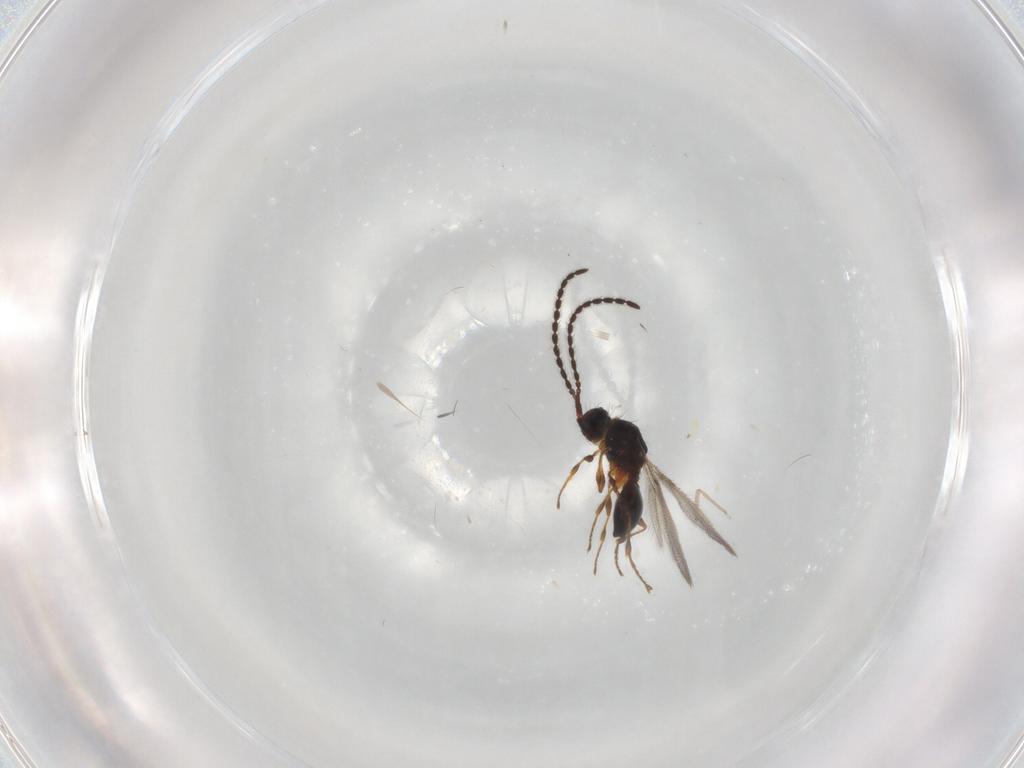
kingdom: Animalia
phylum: Arthropoda
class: Insecta
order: Hymenoptera
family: Diapriidae
